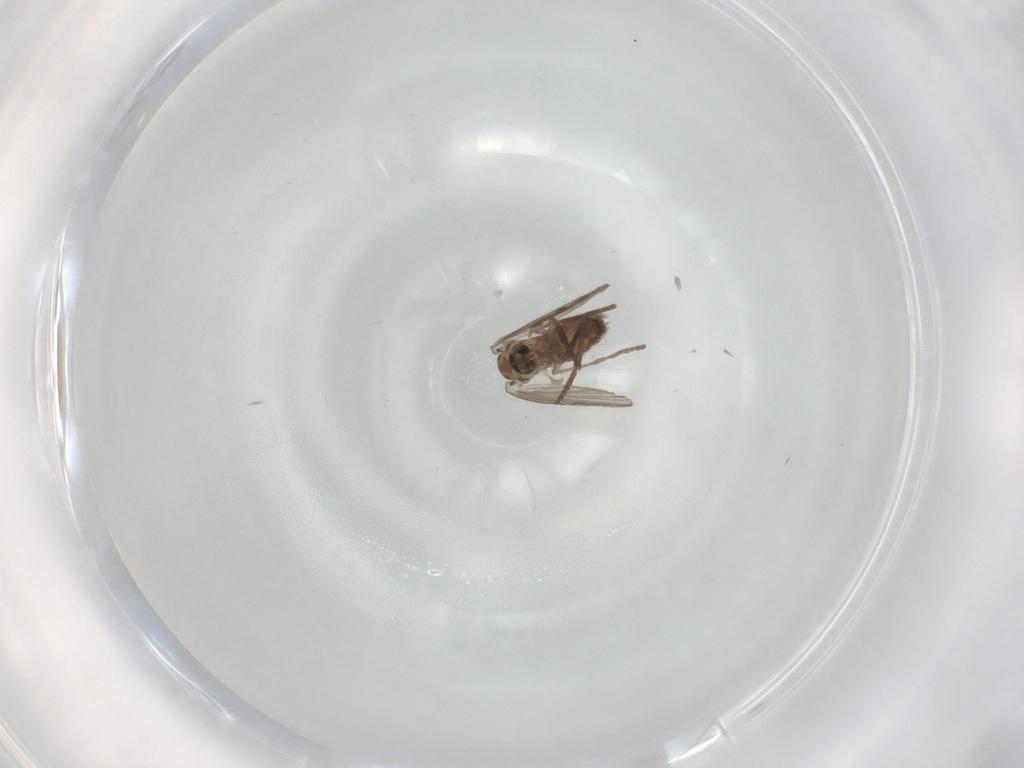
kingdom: Animalia
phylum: Arthropoda
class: Insecta
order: Diptera
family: Psychodidae
